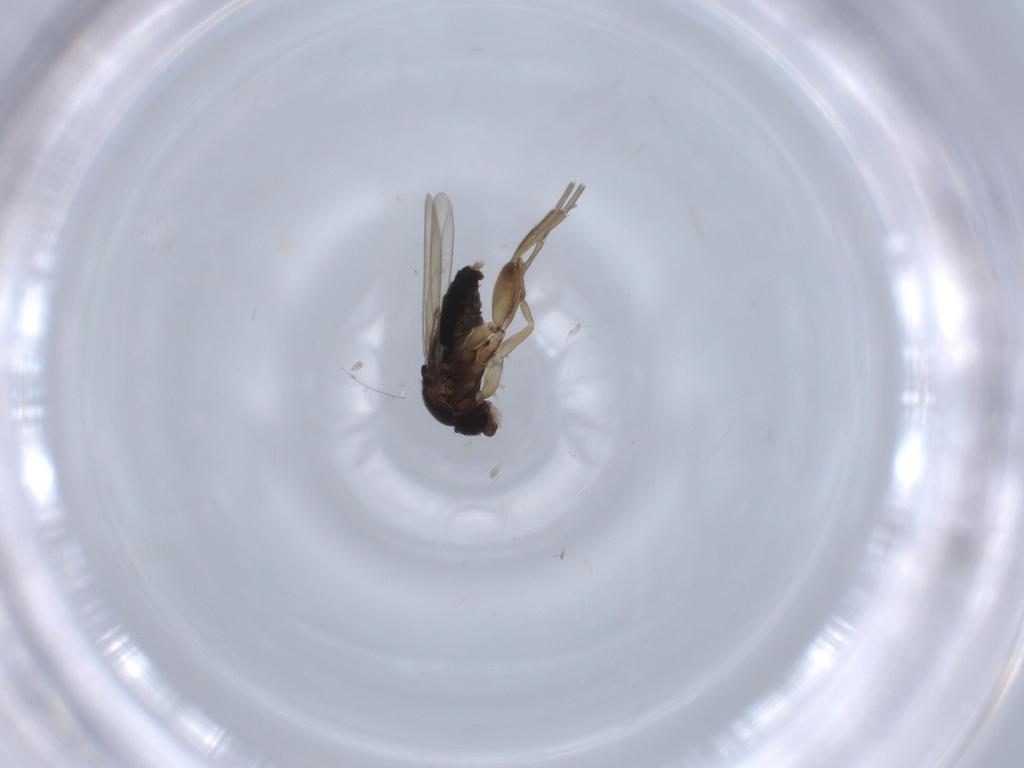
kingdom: Animalia
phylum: Arthropoda
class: Insecta
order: Diptera
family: Phoridae
